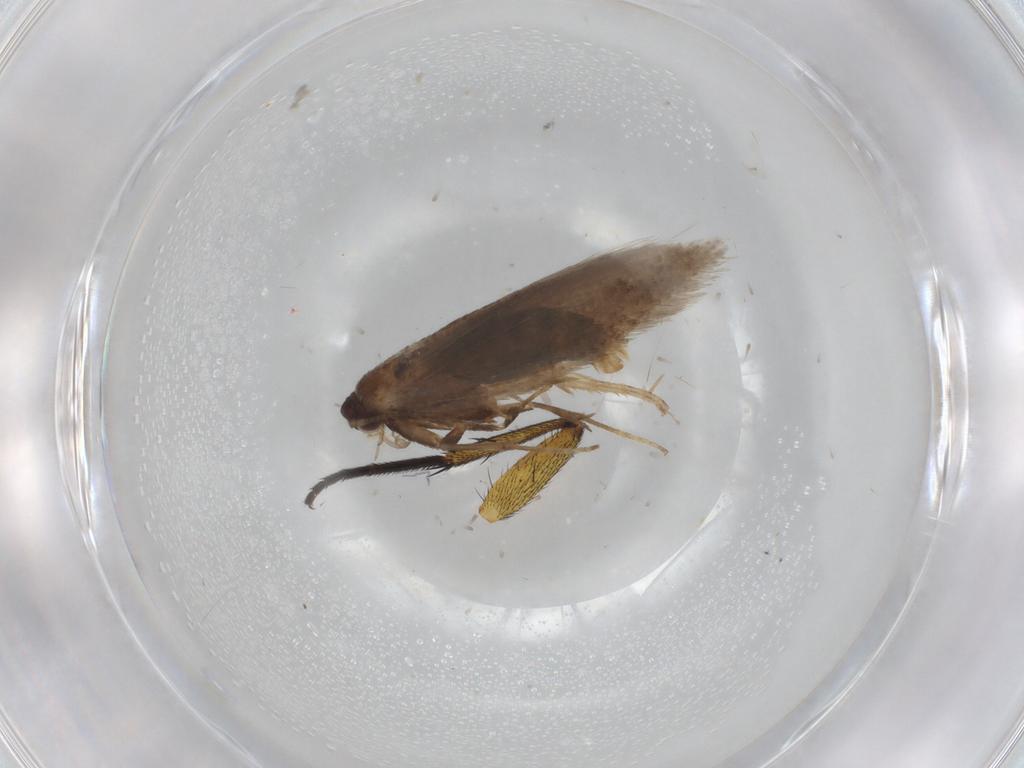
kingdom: Animalia
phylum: Arthropoda
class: Insecta
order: Lepidoptera
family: Nepticulidae
